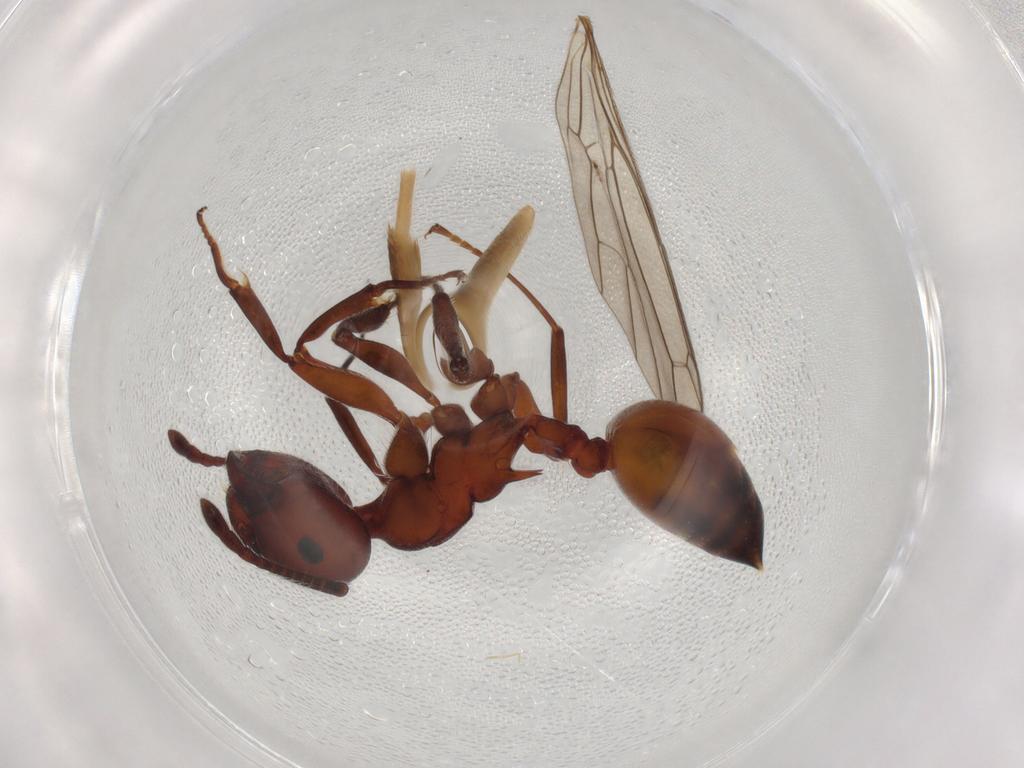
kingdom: Animalia
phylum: Arthropoda
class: Insecta
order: Hymenoptera
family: Formicidae
